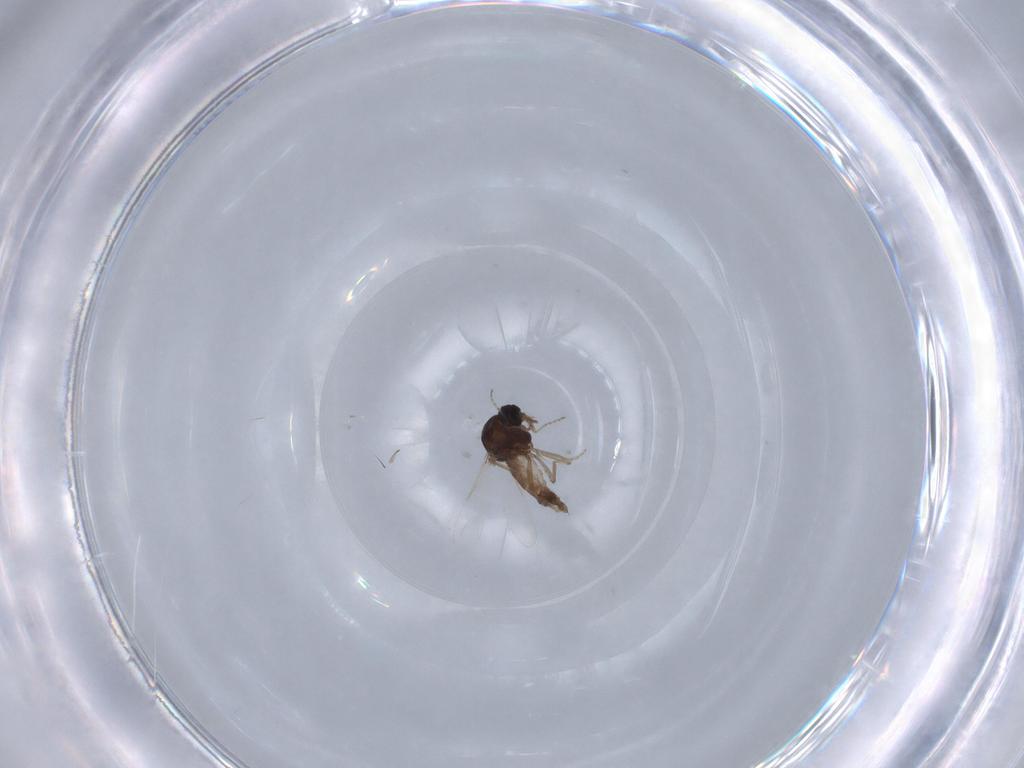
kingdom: Animalia
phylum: Arthropoda
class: Insecta
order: Diptera
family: Ceratopogonidae
